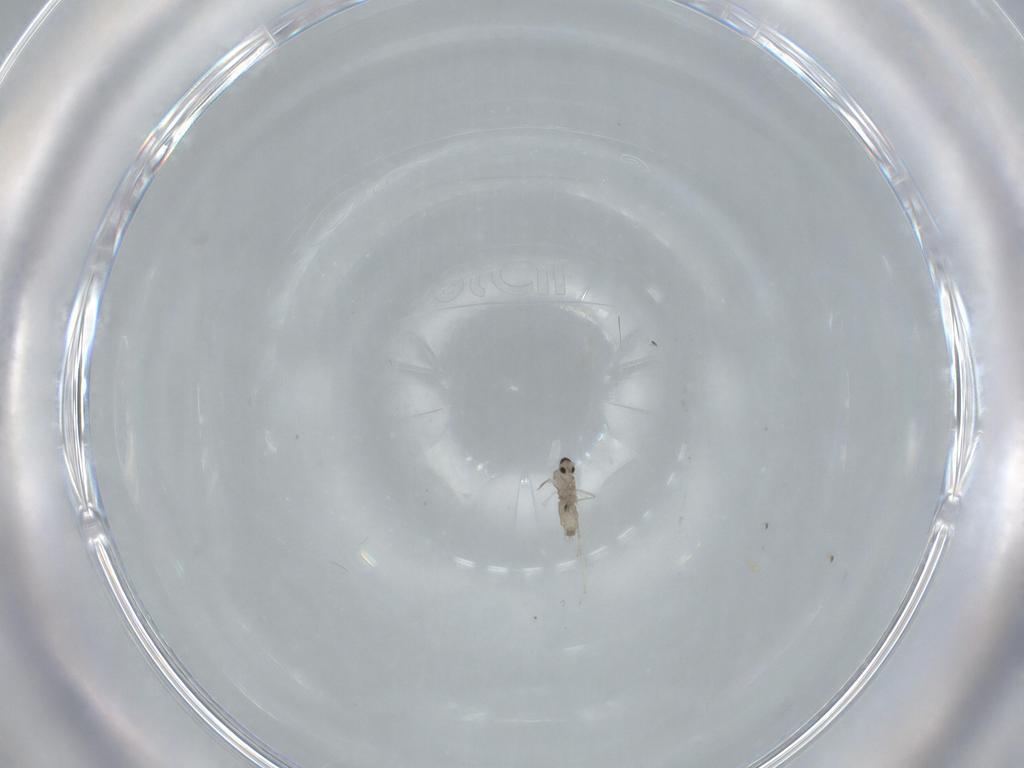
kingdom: Animalia
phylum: Arthropoda
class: Insecta
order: Diptera
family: Cecidomyiidae
